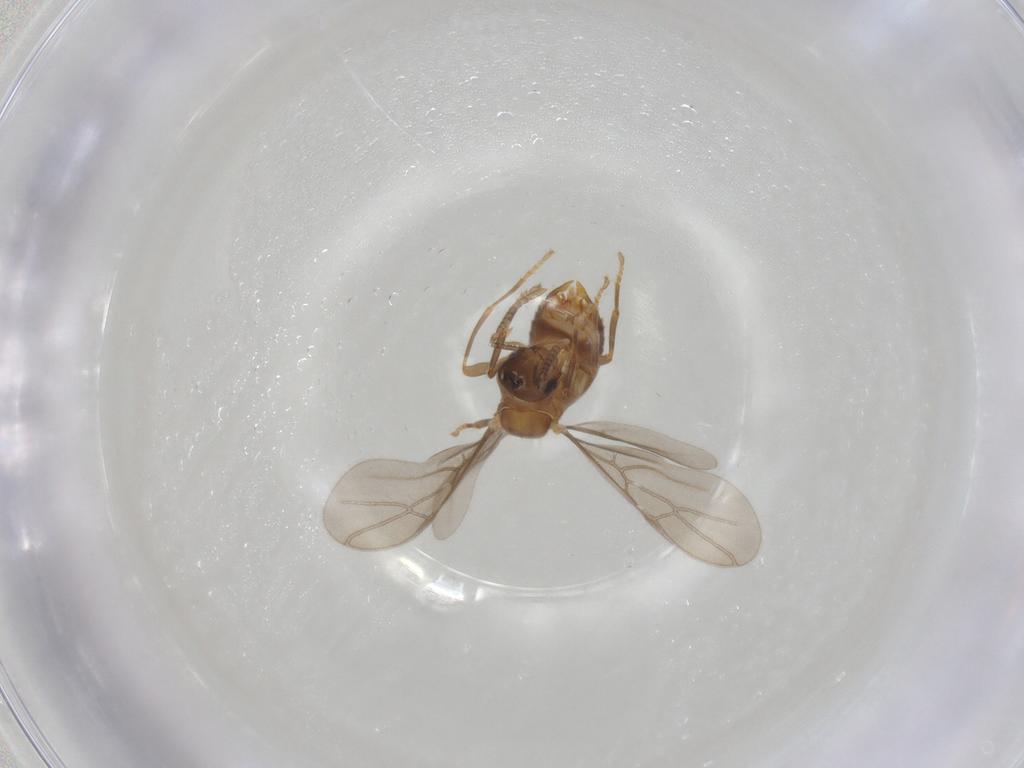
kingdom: Animalia
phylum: Arthropoda
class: Insecta
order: Hymenoptera
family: Formicidae
